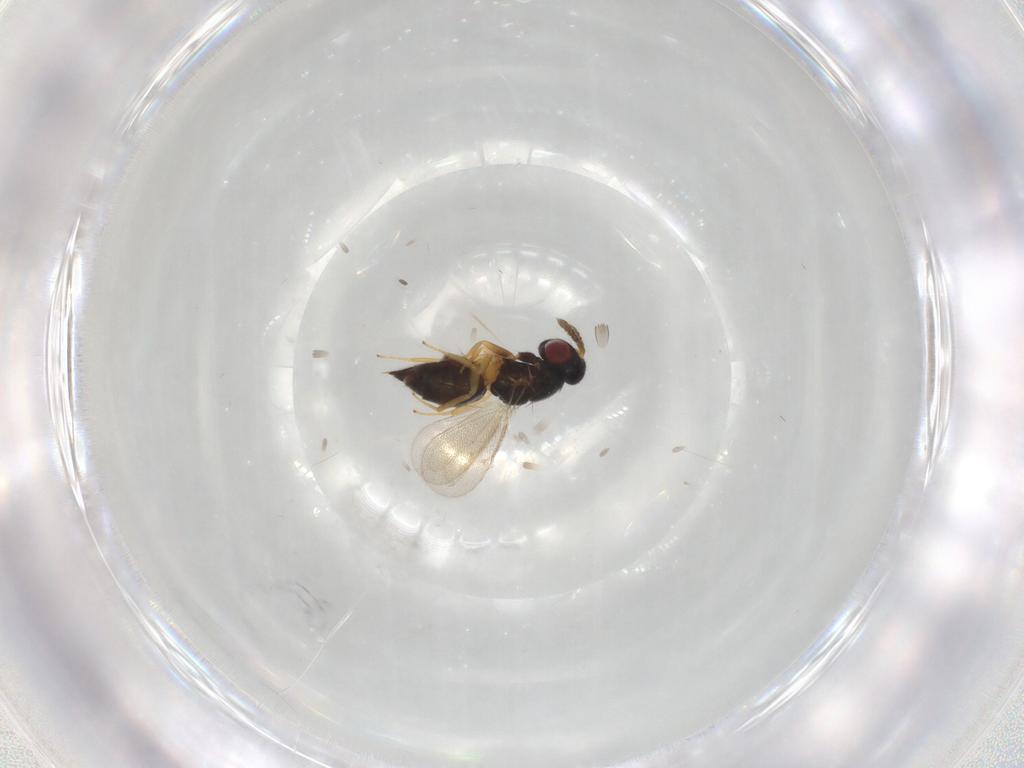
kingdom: Animalia
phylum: Arthropoda
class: Insecta
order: Hymenoptera
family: Eulophidae
